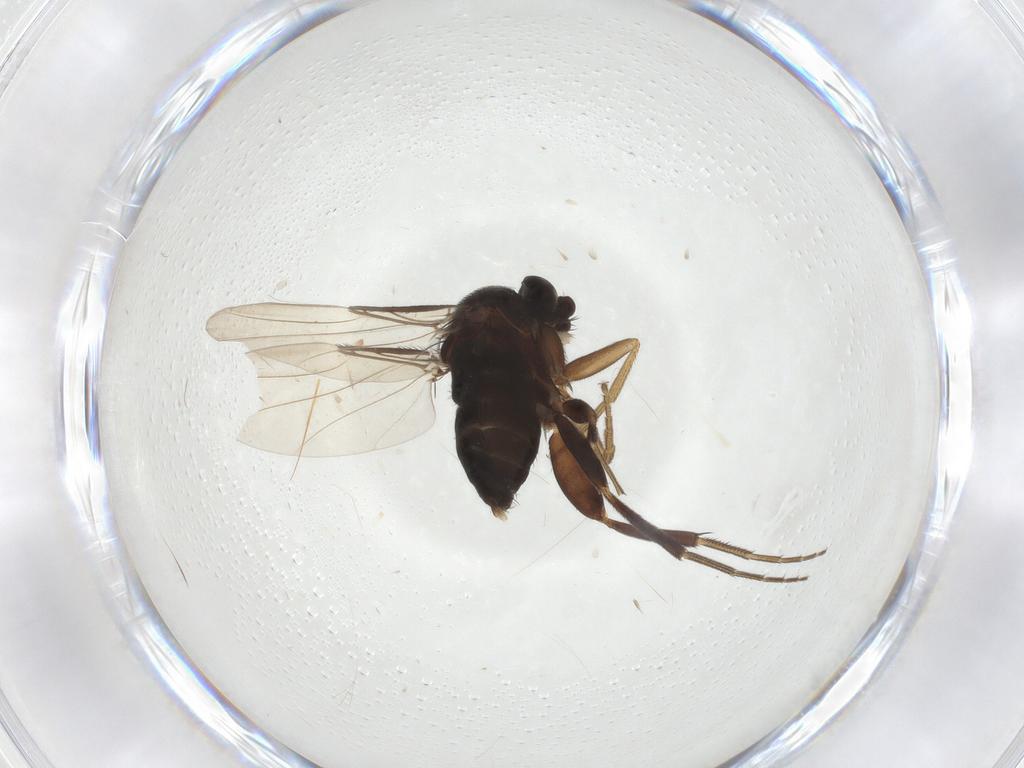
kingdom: Animalia
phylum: Arthropoda
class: Insecta
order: Diptera
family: Phoridae
